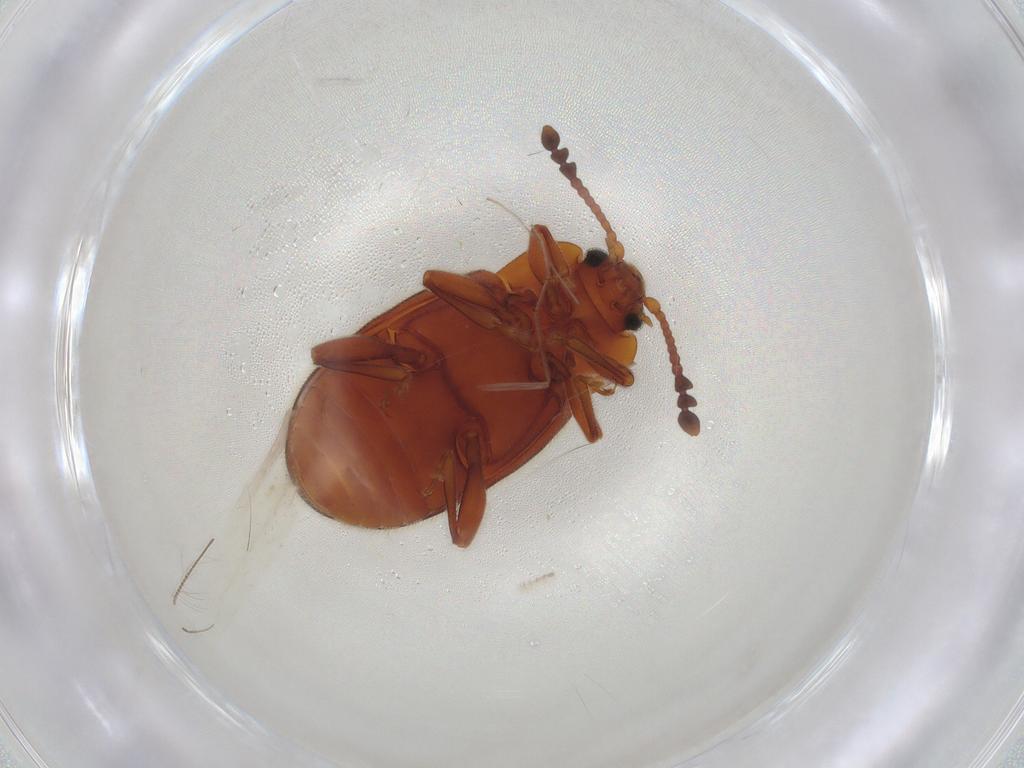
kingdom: Animalia
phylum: Arthropoda
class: Insecta
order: Coleoptera
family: Endomychidae
